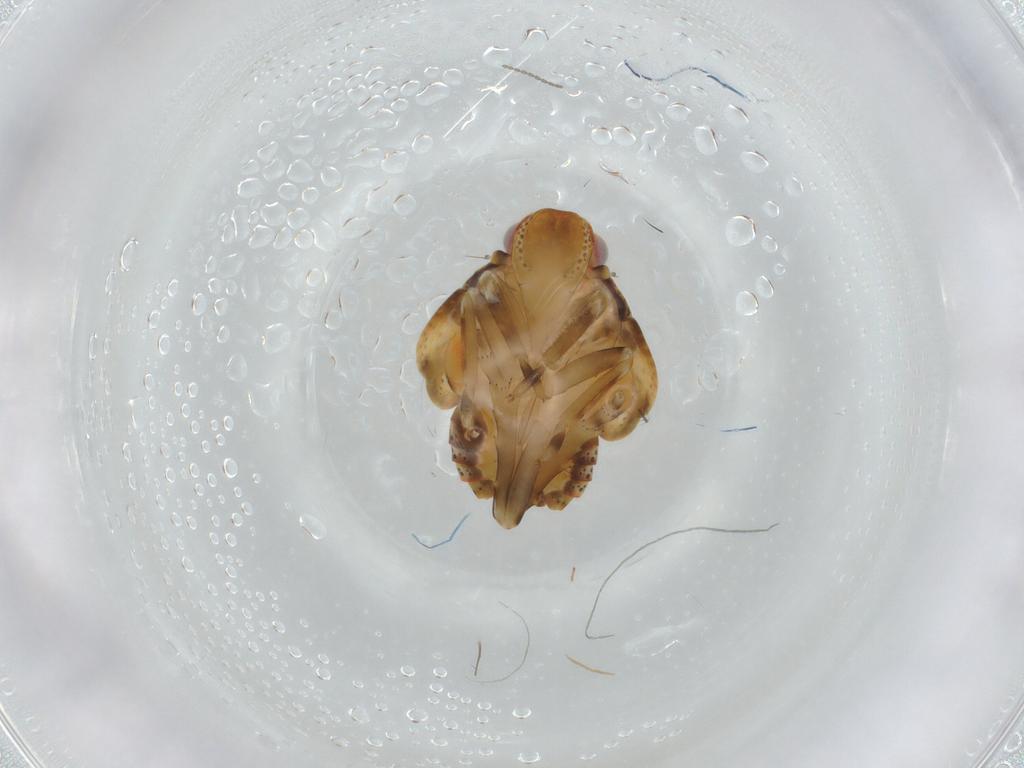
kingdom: Animalia
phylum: Arthropoda
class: Insecta
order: Hemiptera
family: Flatidae
